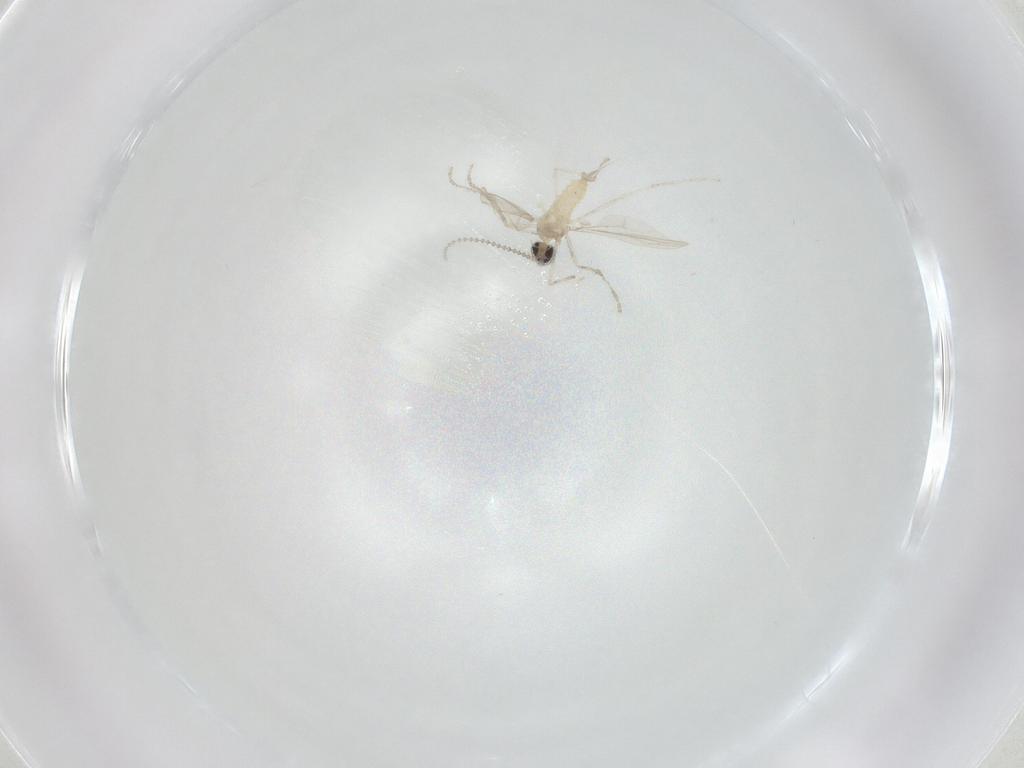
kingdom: Animalia
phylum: Arthropoda
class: Insecta
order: Diptera
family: Cecidomyiidae
